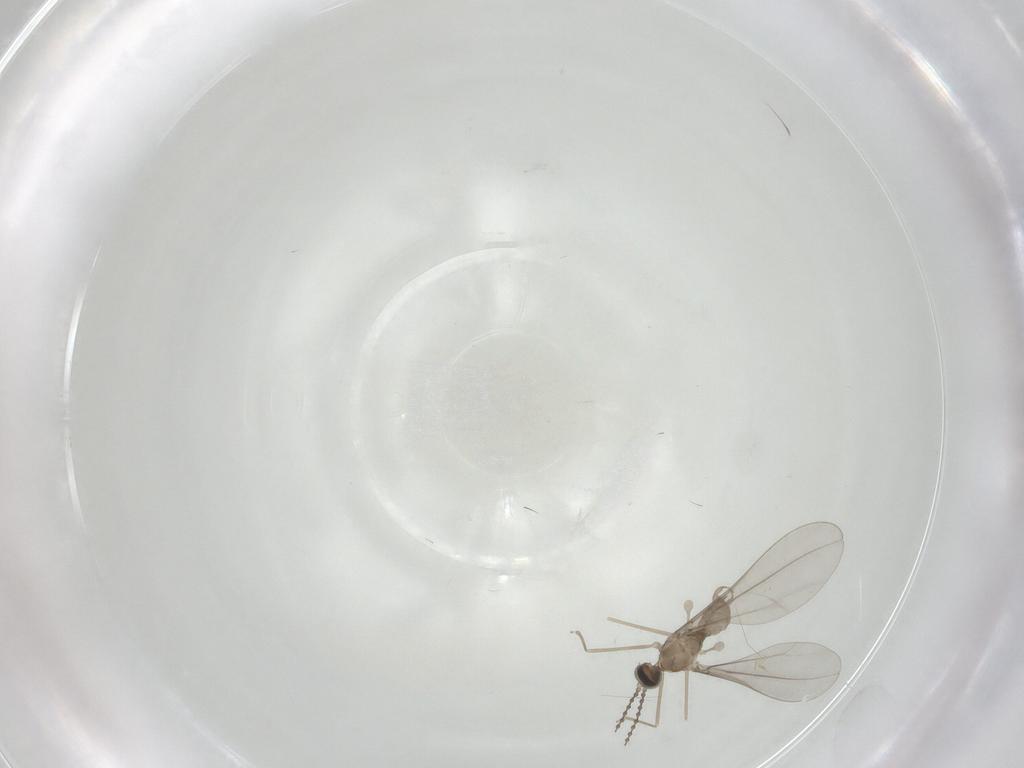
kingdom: Animalia
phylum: Arthropoda
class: Insecta
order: Diptera
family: Cecidomyiidae
